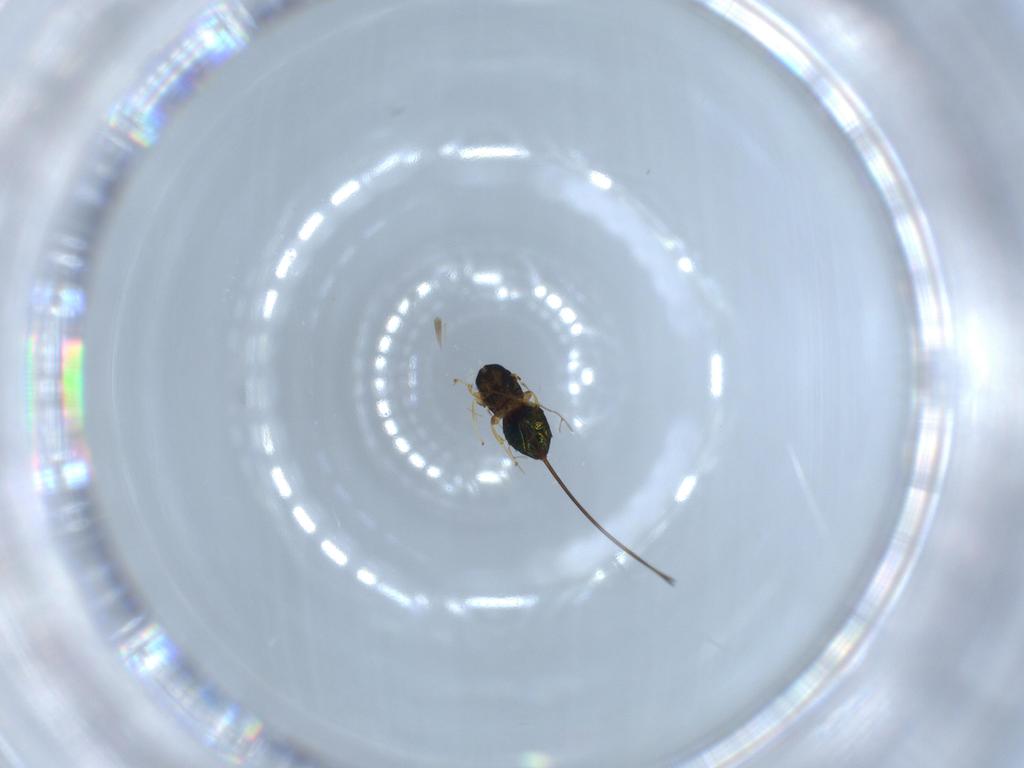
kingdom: Animalia
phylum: Arthropoda
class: Insecta
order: Hymenoptera
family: Agaonidae
